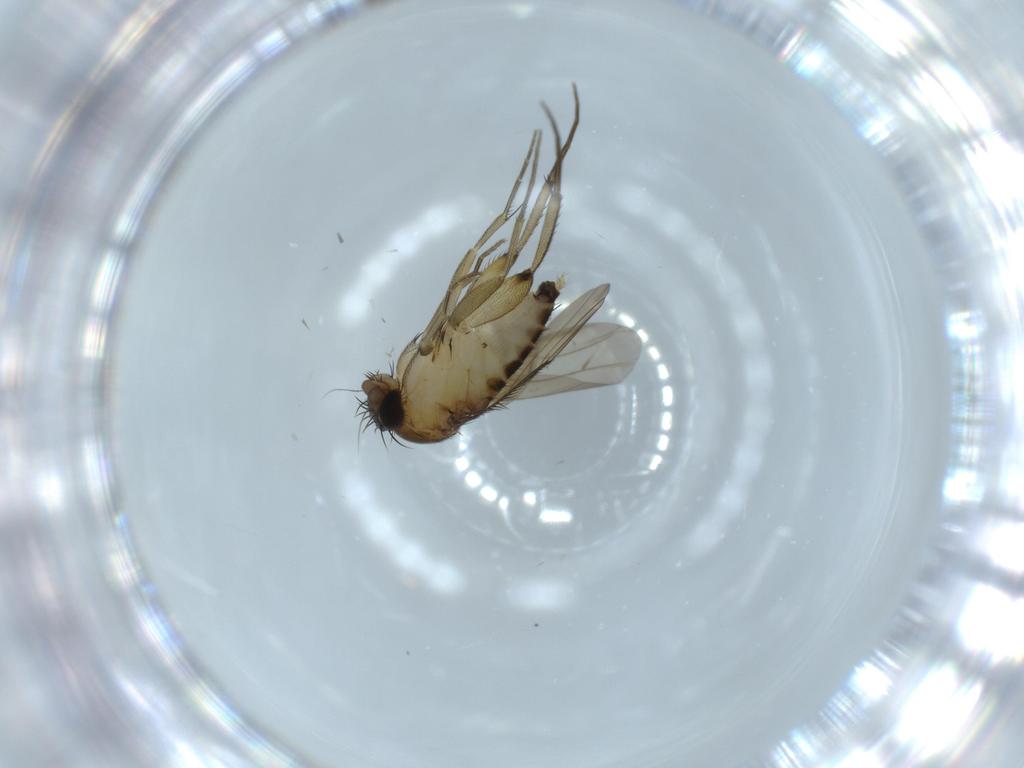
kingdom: Animalia
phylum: Arthropoda
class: Insecta
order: Diptera
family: Phoridae
